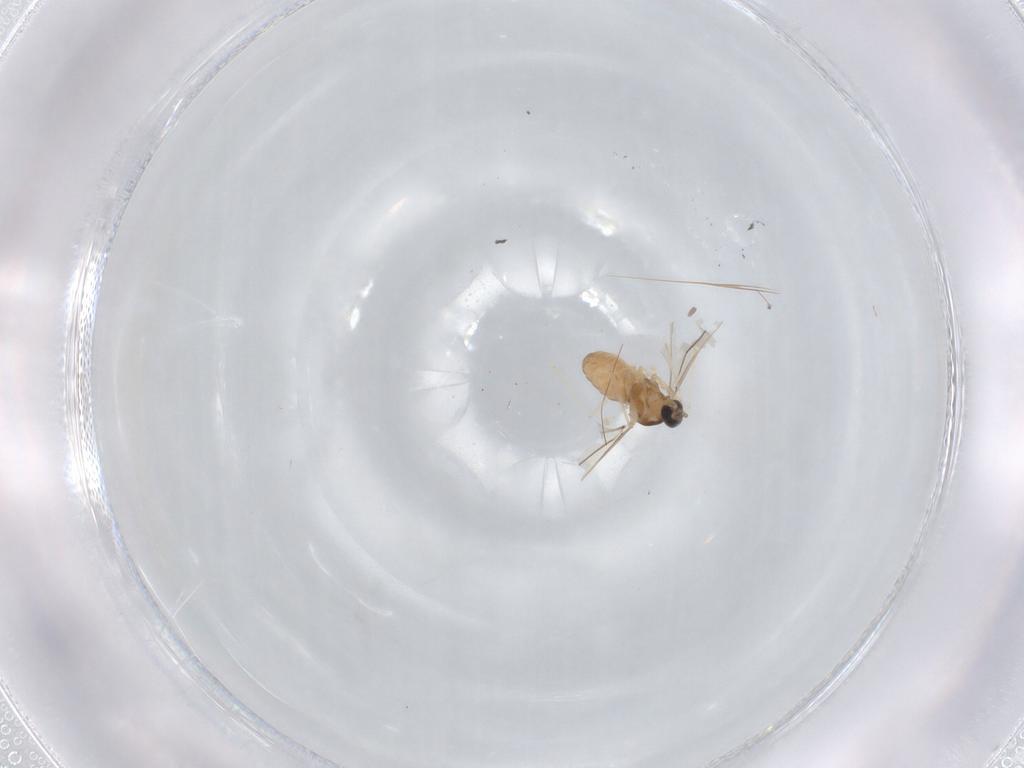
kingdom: Animalia
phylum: Arthropoda
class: Insecta
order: Diptera
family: Cecidomyiidae
